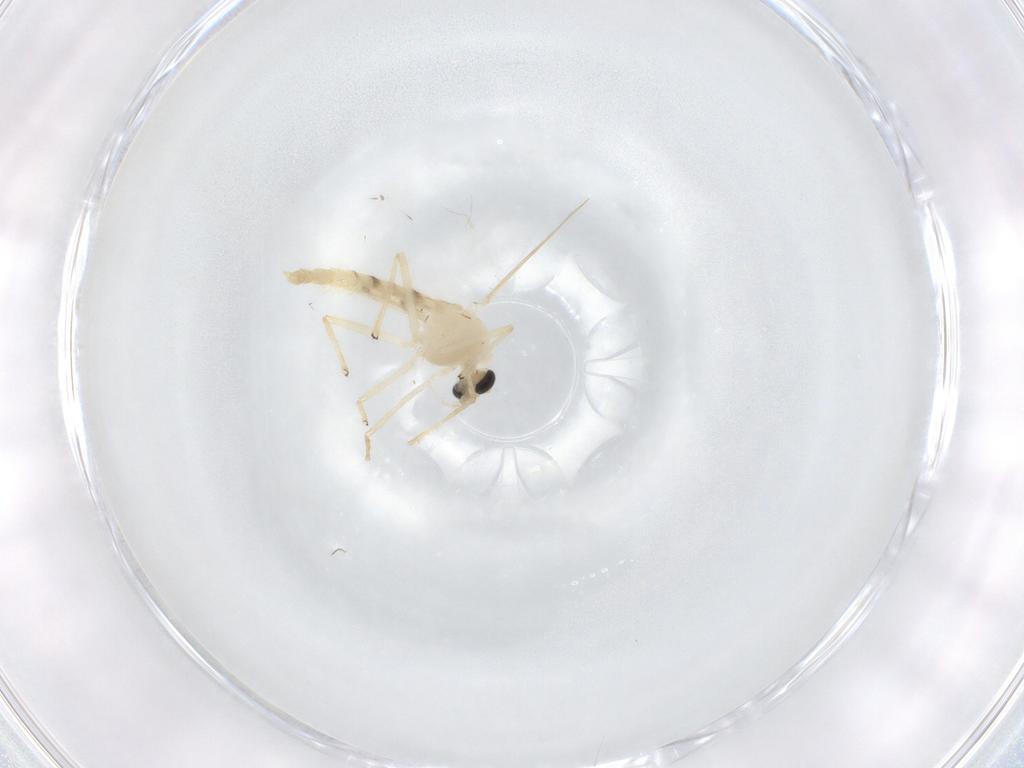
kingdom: Animalia
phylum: Arthropoda
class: Insecta
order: Diptera
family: Chironomidae
